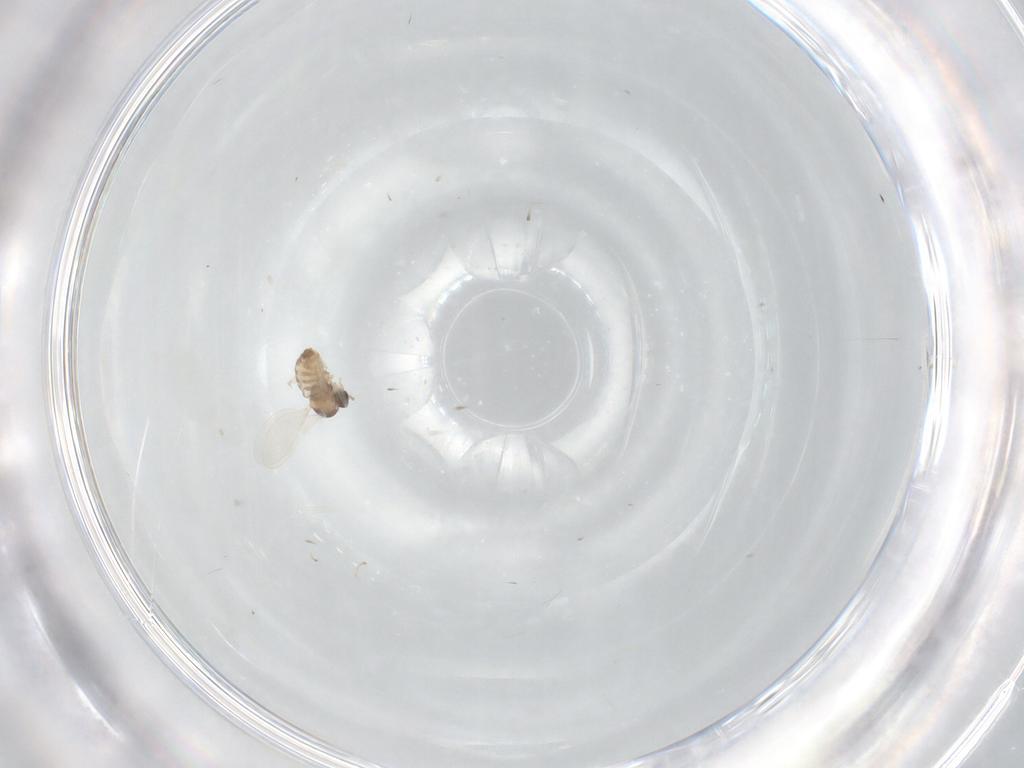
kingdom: Animalia
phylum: Arthropoda
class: Insecta
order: Diptera
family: Cecidomyiidae
